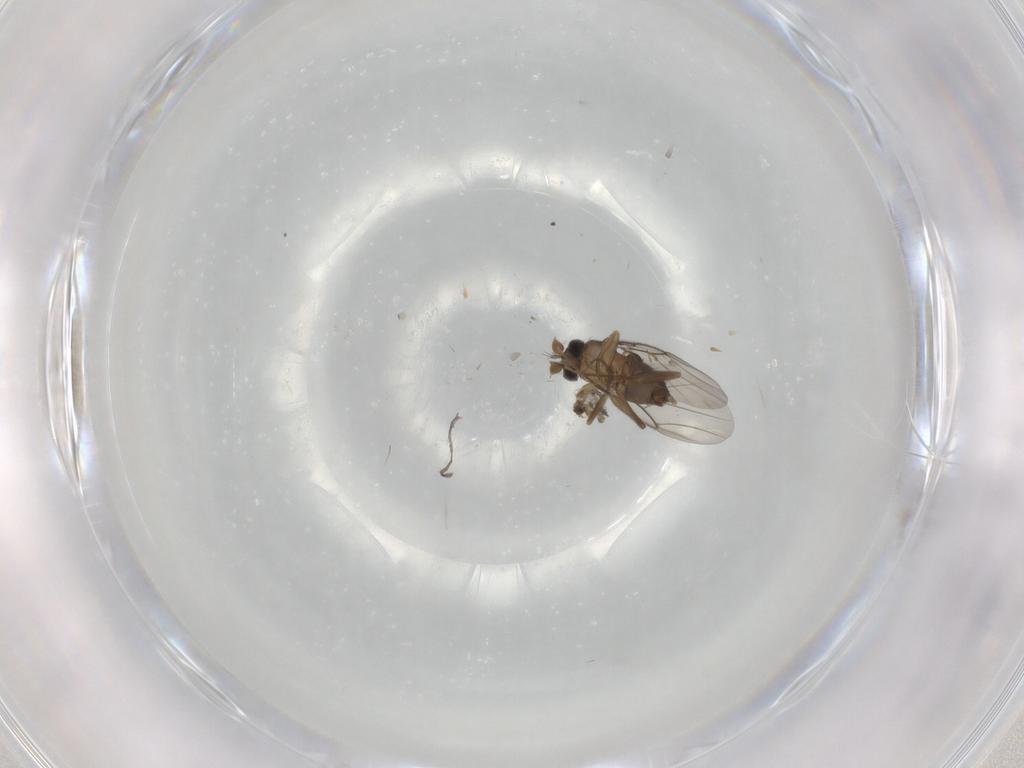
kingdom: Animalia
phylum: Arthropoda
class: Insecta
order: Diptera
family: Phoridae
